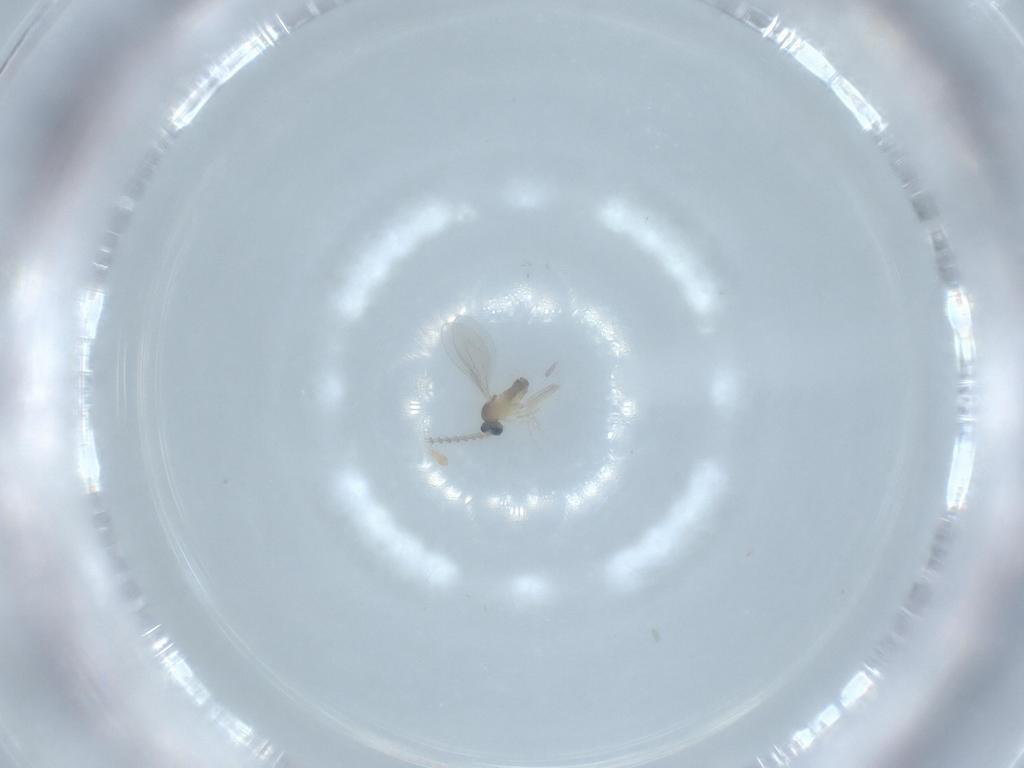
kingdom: Animalia
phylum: Arthropoda
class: Insecta
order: Diptera
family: Cecidomyiidae
